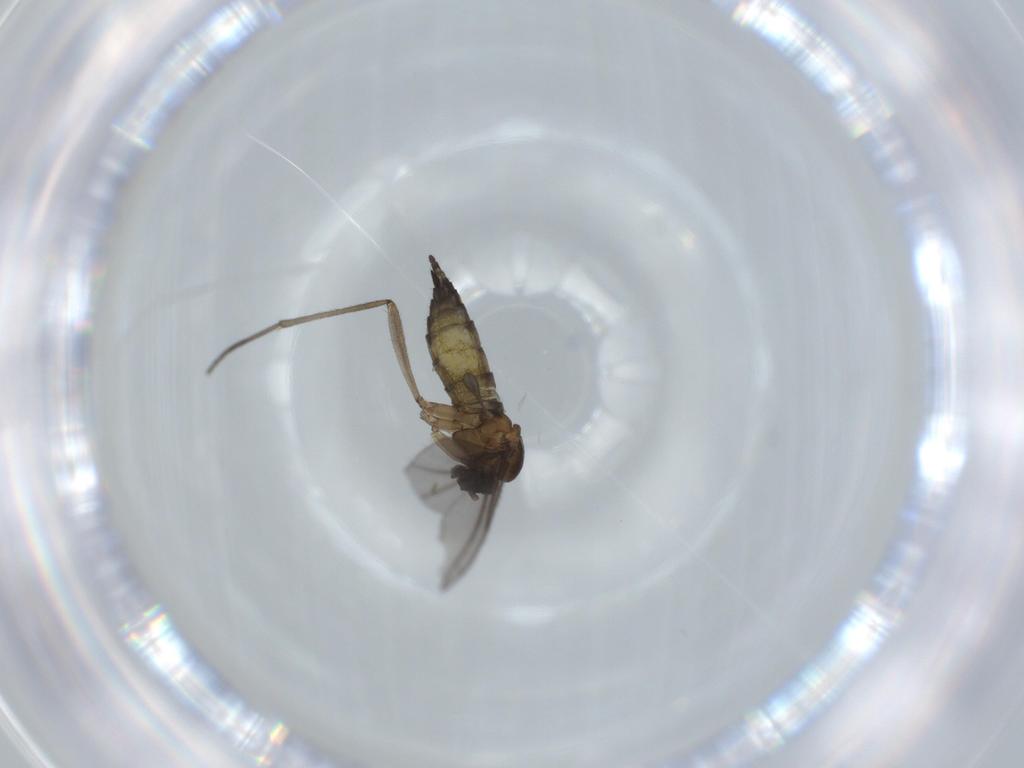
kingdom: Animalia
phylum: Arthropoda
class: Insecta
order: Diptera
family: Sciaridae
